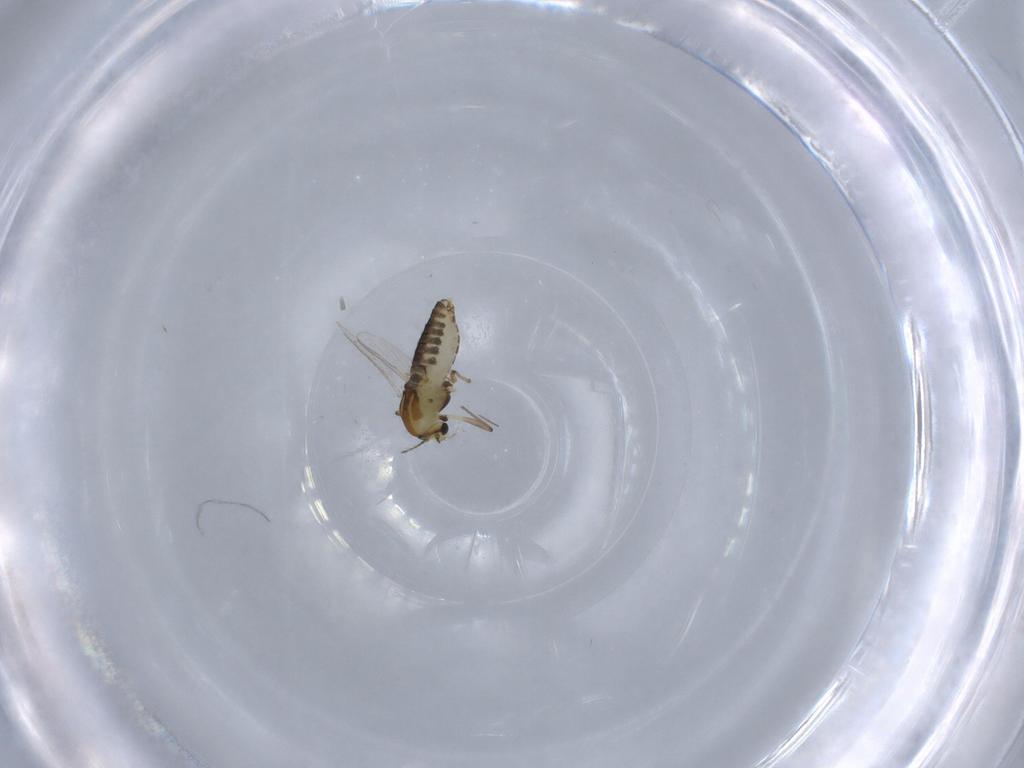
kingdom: Animalia
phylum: Arthropoda
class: Insecta
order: Diptera
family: Chironomidae
